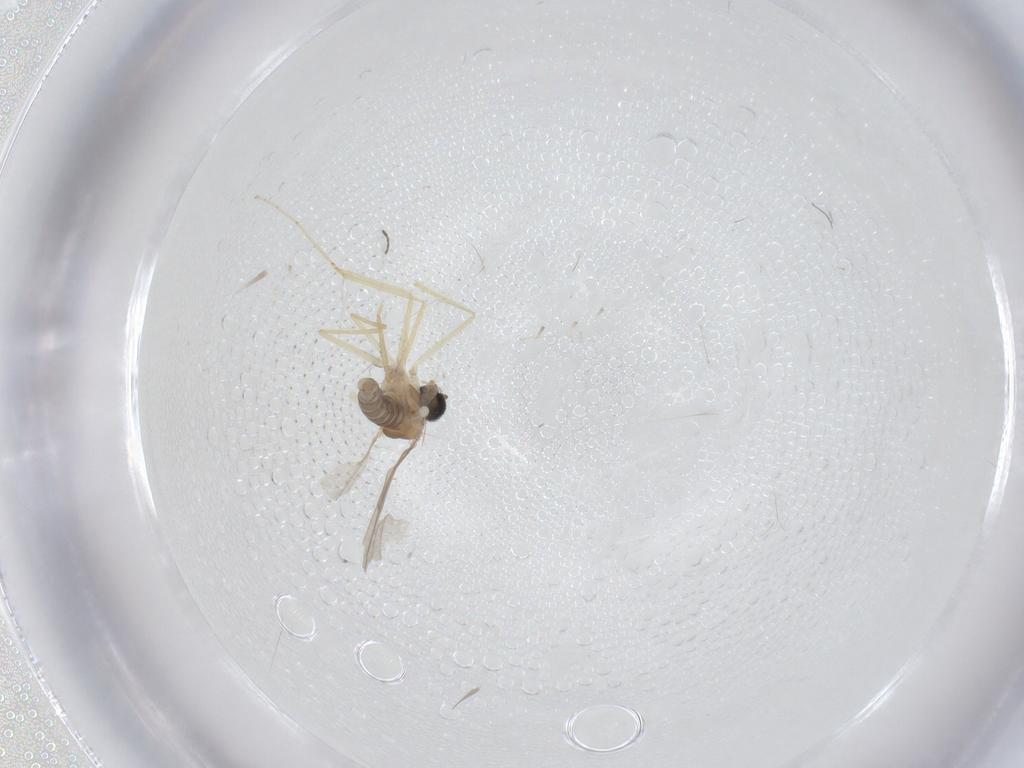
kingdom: Animalia
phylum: Arthropoda
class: Insecta
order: Diptera
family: Cecidomyiidae
